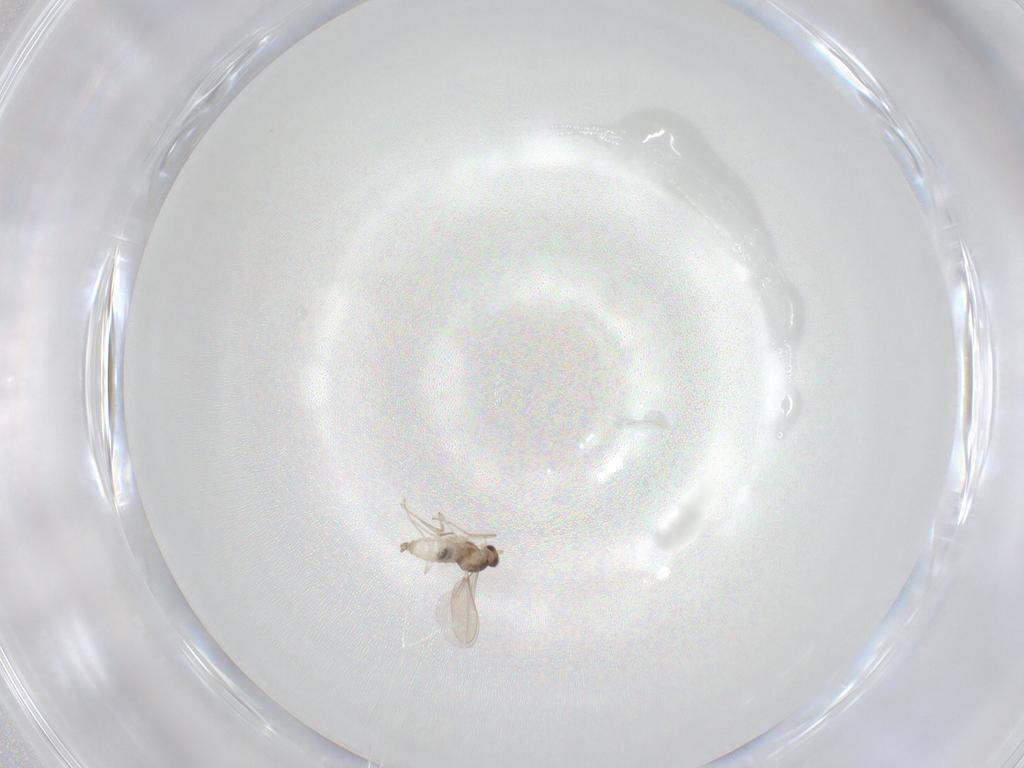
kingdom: Animalia
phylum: Arthropoda
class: Insecta
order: Diptera
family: Cecidomyiidae
